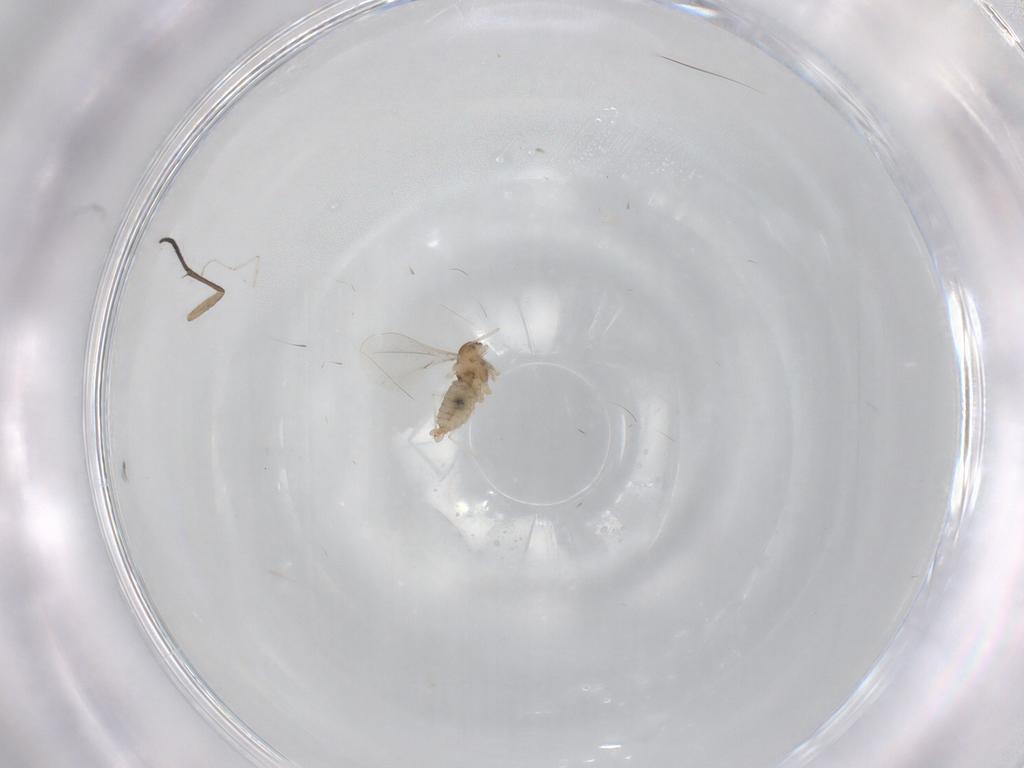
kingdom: Animalia
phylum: Arthropoda
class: Insecta
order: Diptera
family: Cecidomyiidae
